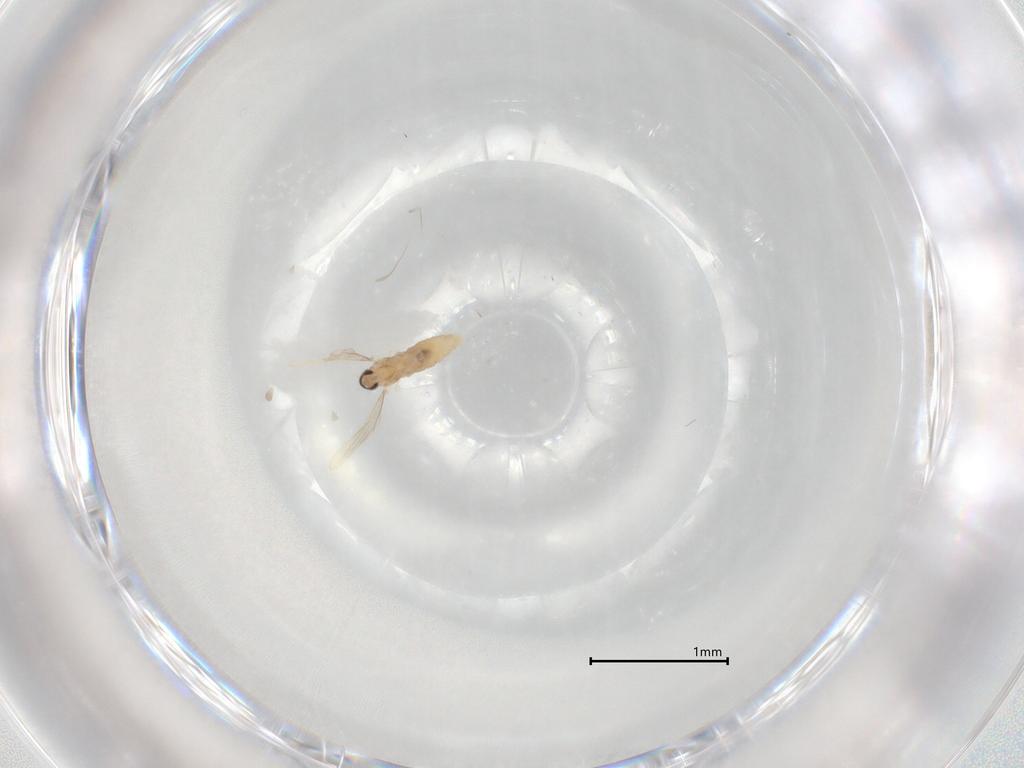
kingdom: Animalia
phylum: Arthropoda
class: Insecta
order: Diptera
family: Cecidomyiidae
